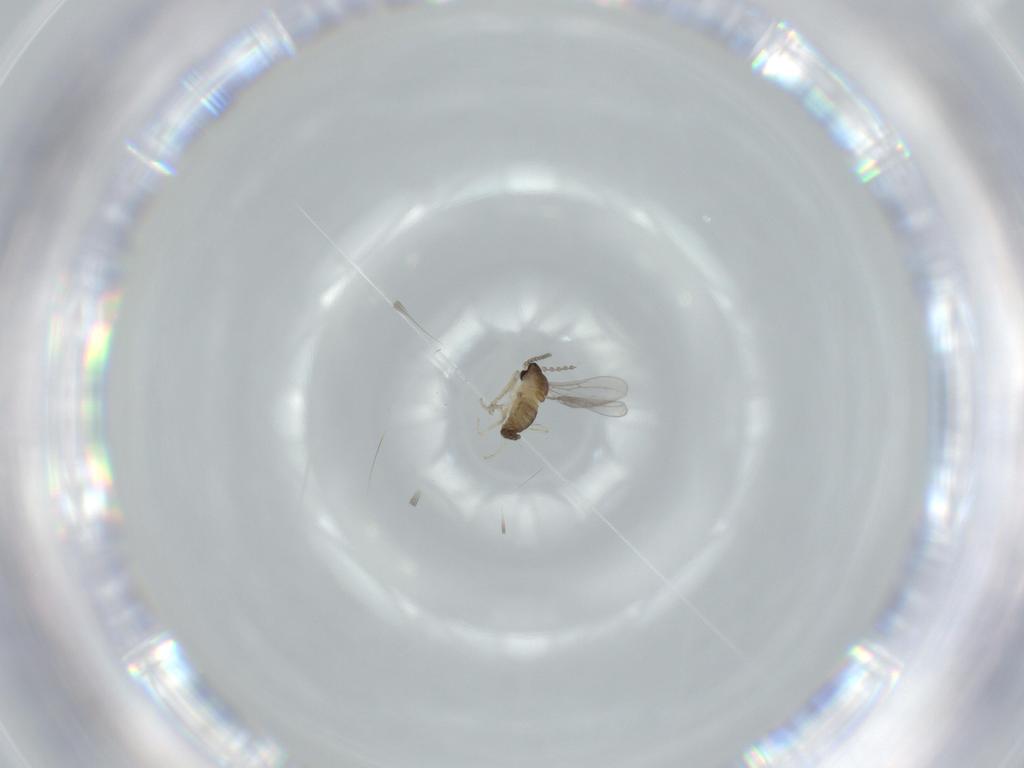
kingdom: Animalia
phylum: Arthropoda
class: Insecta
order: Diptera
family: Cecidomyiidae
